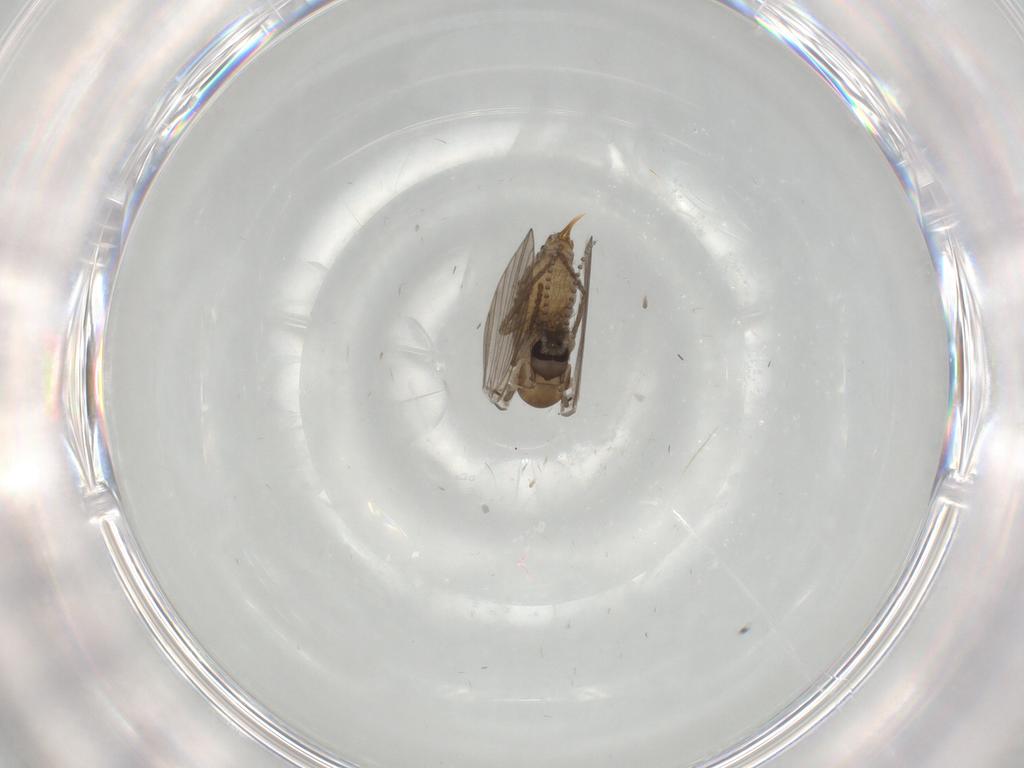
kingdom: Animalia
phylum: Arthropoda
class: Insecta
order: Diptera
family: Psychodidae
